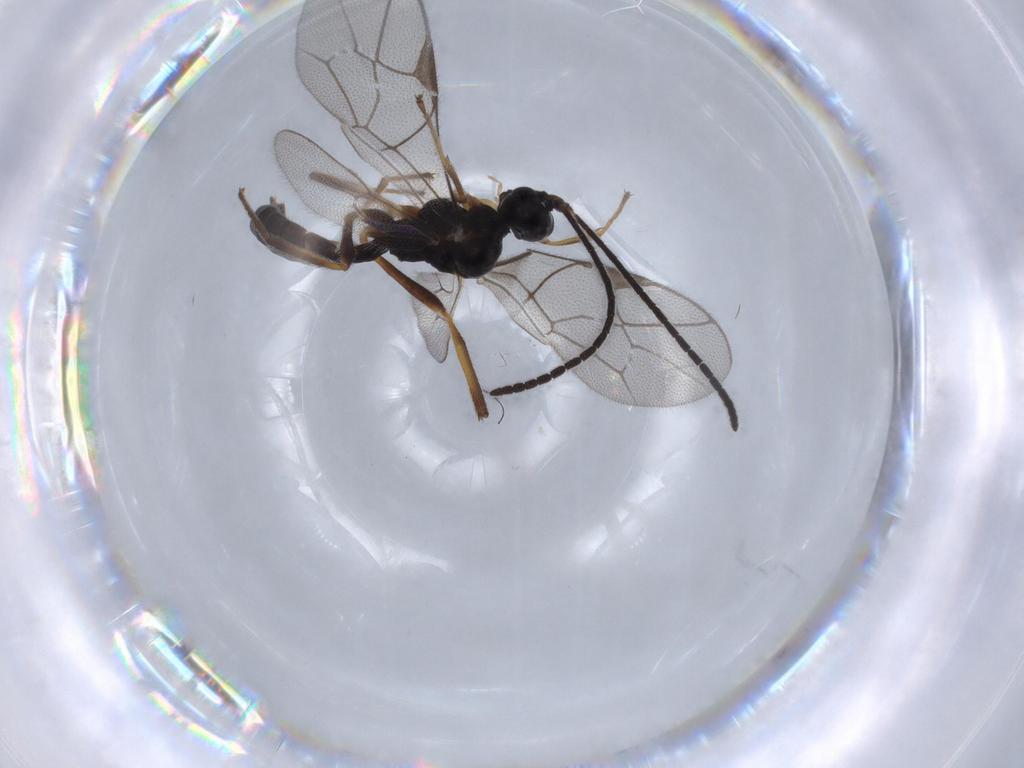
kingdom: Animalia
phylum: Arthropoda
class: Insecta
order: Hymenoptera
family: Ichneumonidae
